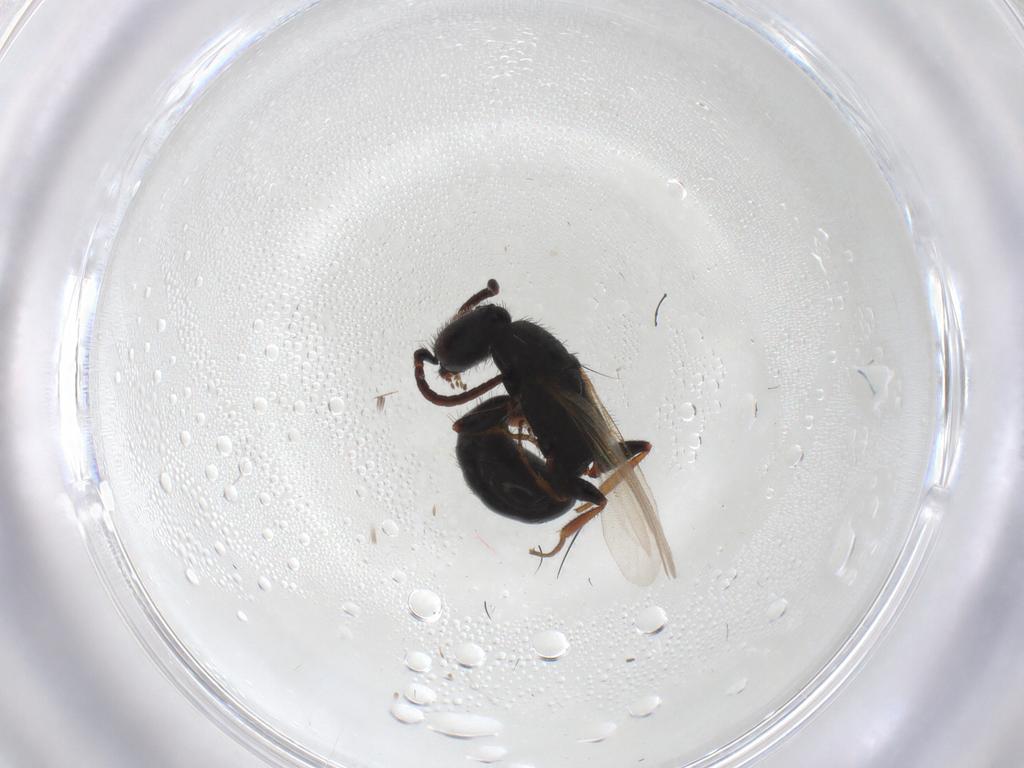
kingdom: Animalia
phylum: Arthropoda
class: Insecta
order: Hymenoptera
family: Bethylidae
